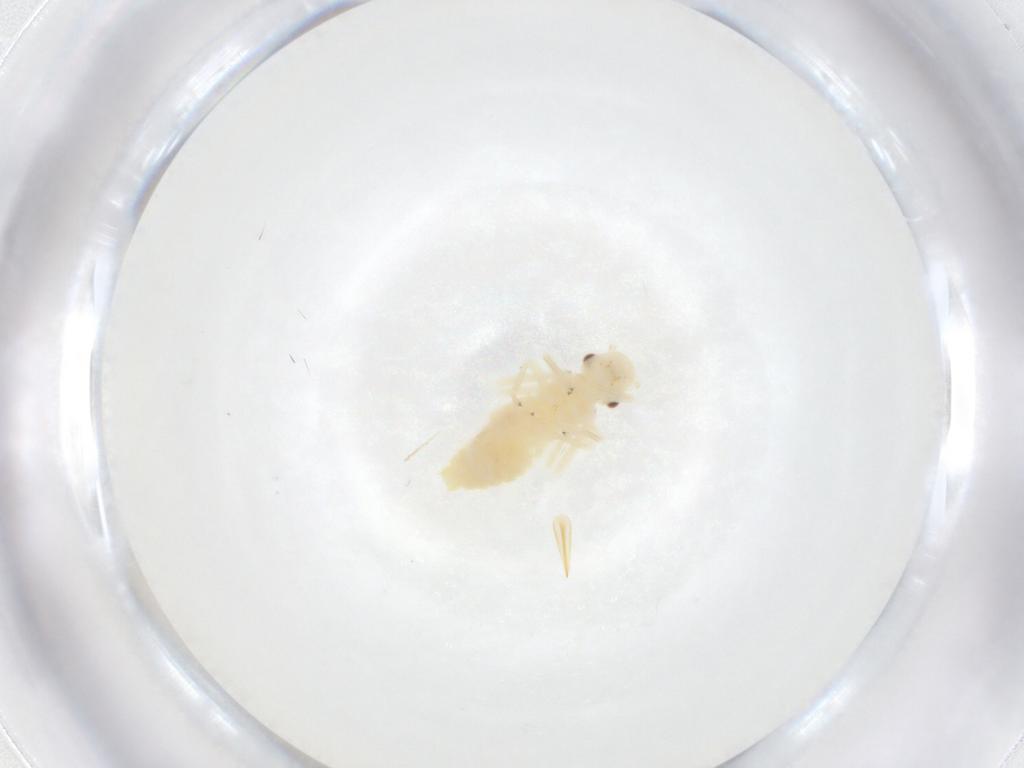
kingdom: Animalia
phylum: Arthropoda
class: Insecta
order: Psocodea
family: Caeciliusidae
